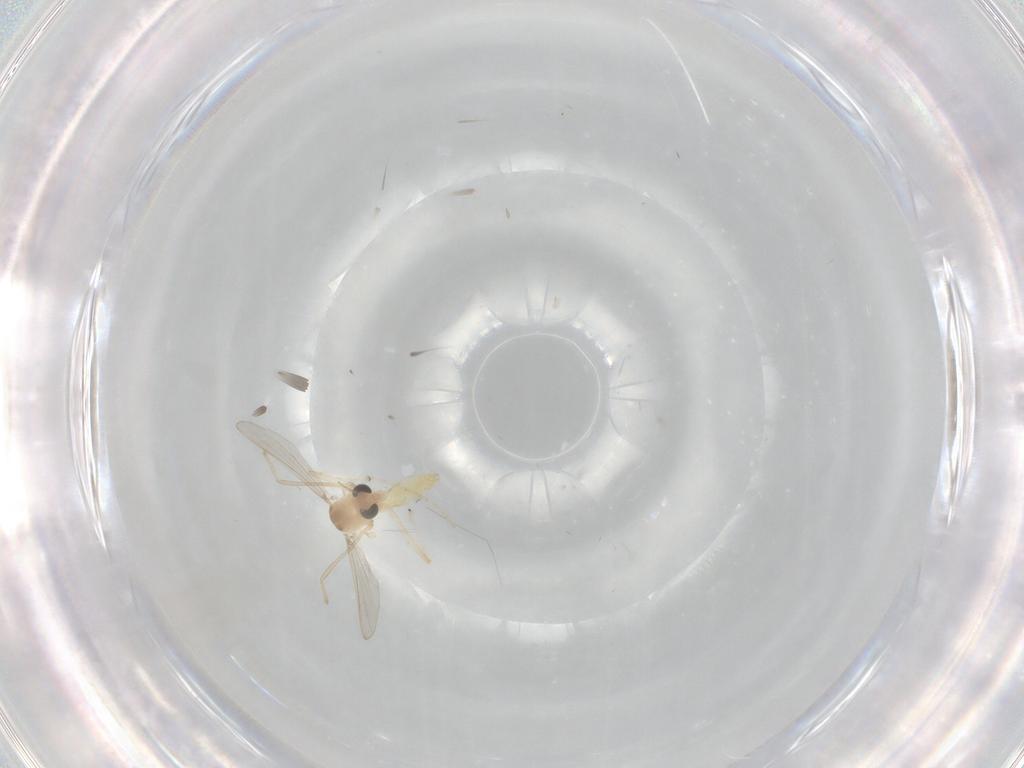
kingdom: Animalia
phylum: Arthropoda
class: Insecta
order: Diptera
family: Chironomidae
